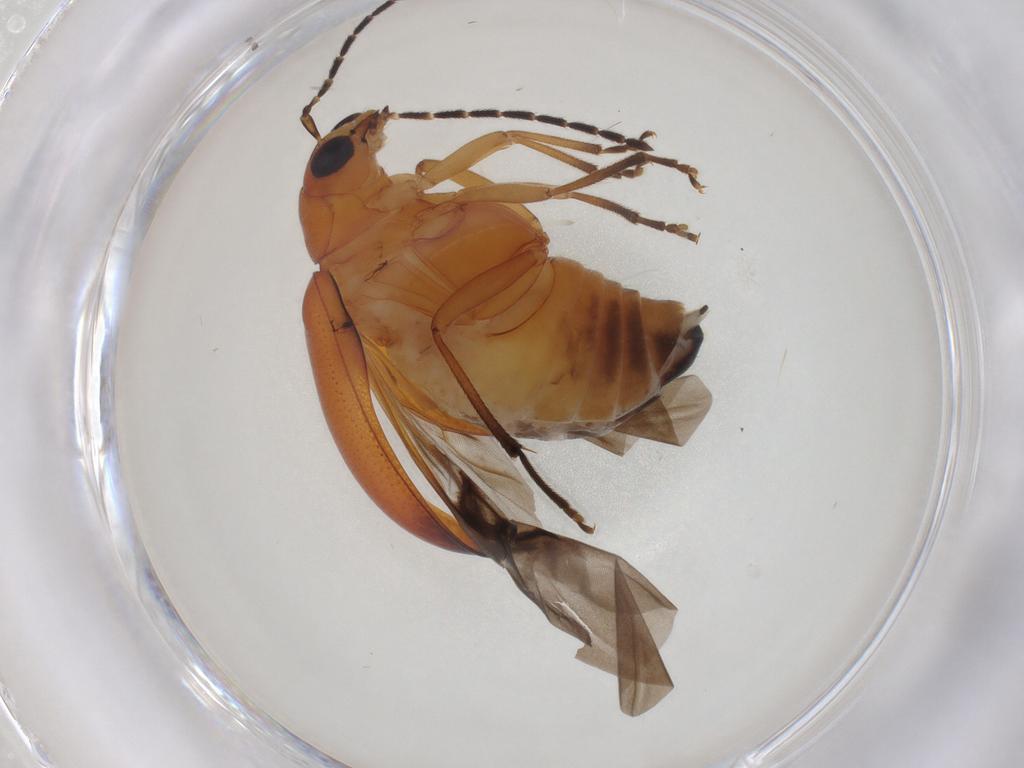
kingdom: Animalia
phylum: Arthropoda
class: Insecta
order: Coleoptera
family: Chrysomelidae
